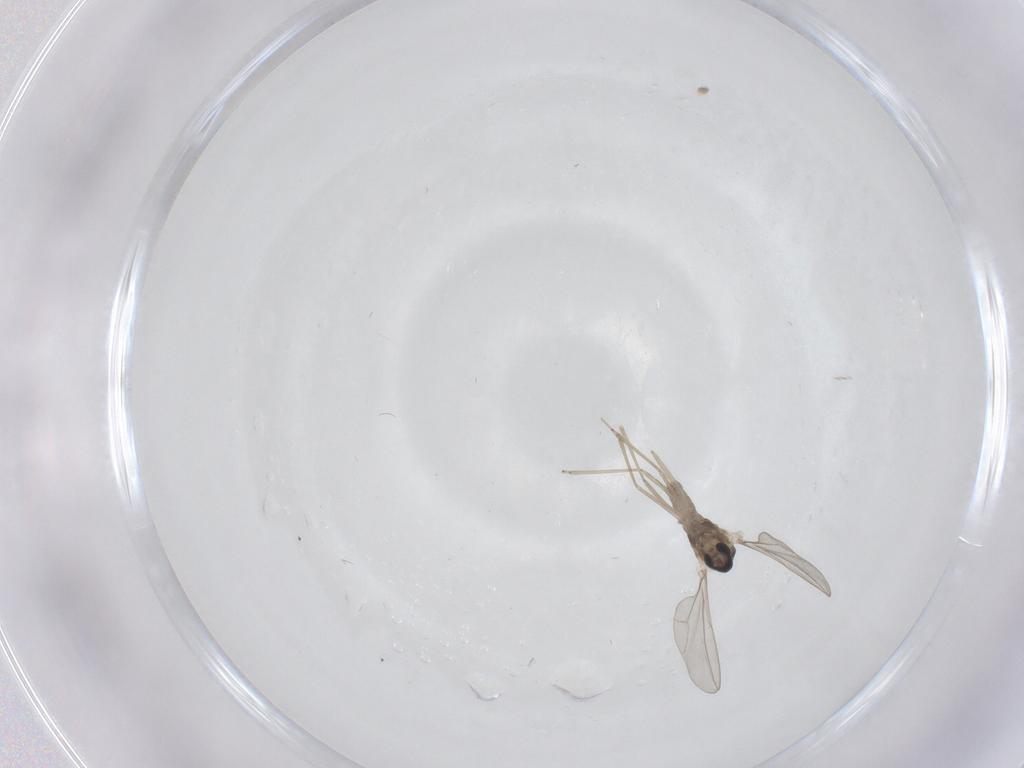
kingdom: Animalia
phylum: Arthropoda
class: Insecta
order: Diptera
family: Cecidomyiidae
